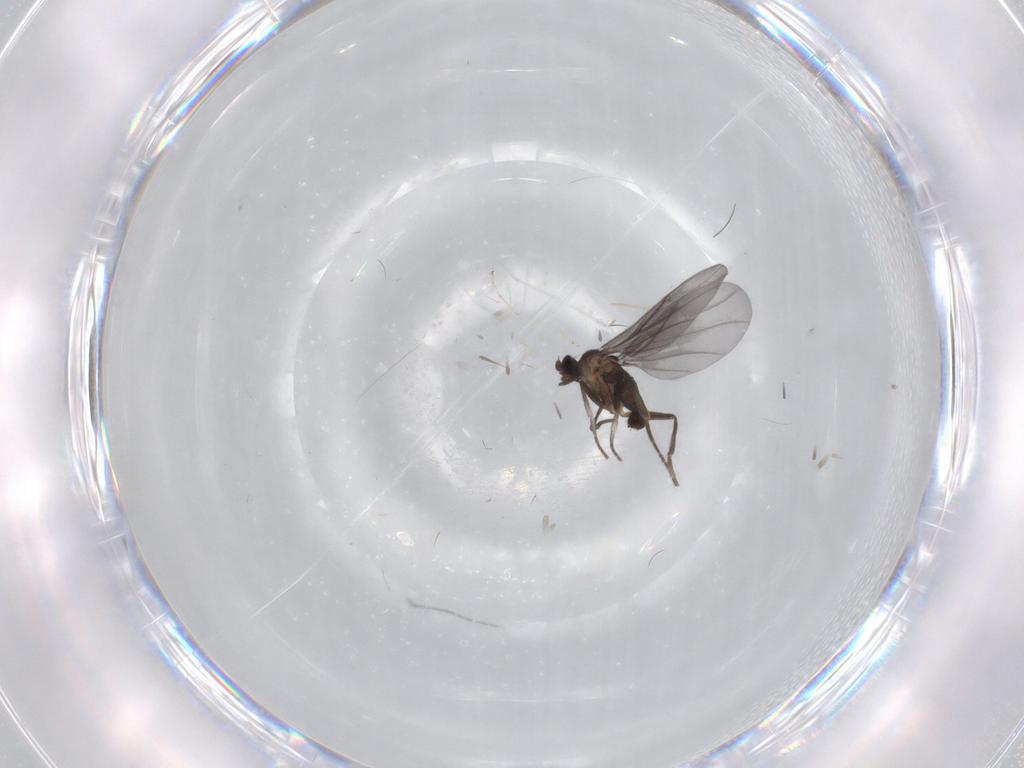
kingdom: Animalia
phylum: Arthropoda
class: Insecta
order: Diptera
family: Phoridae
